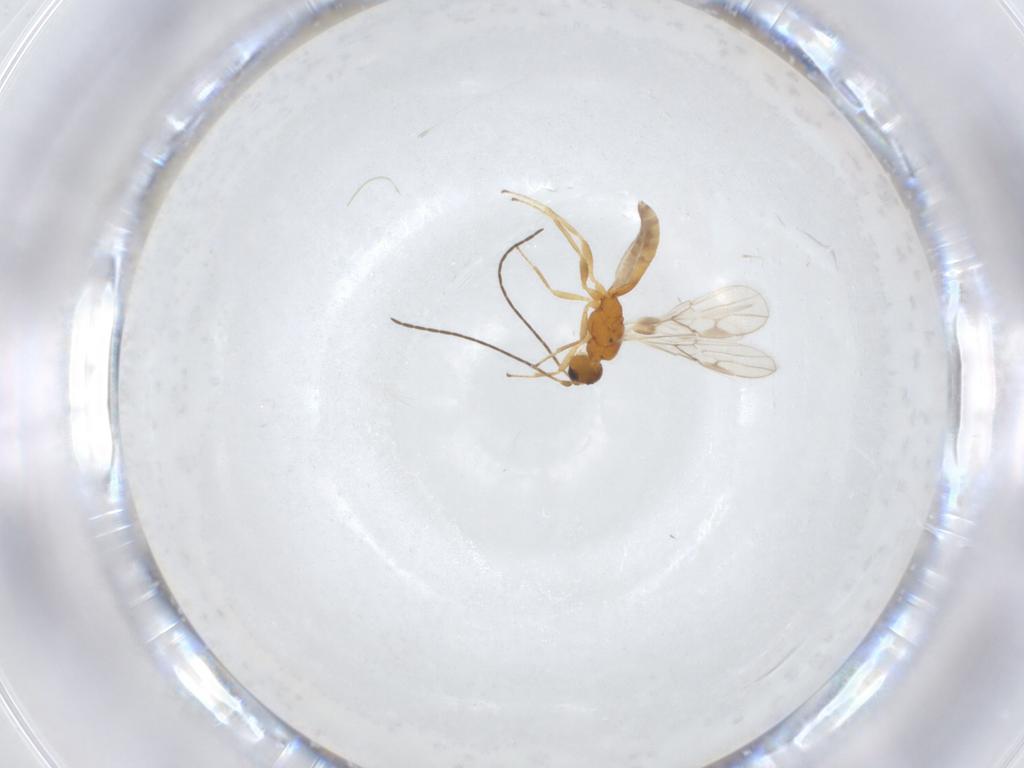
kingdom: Animalia
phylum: Arthropoda
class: Insecta
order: Hymenoptera
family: Braconidae
